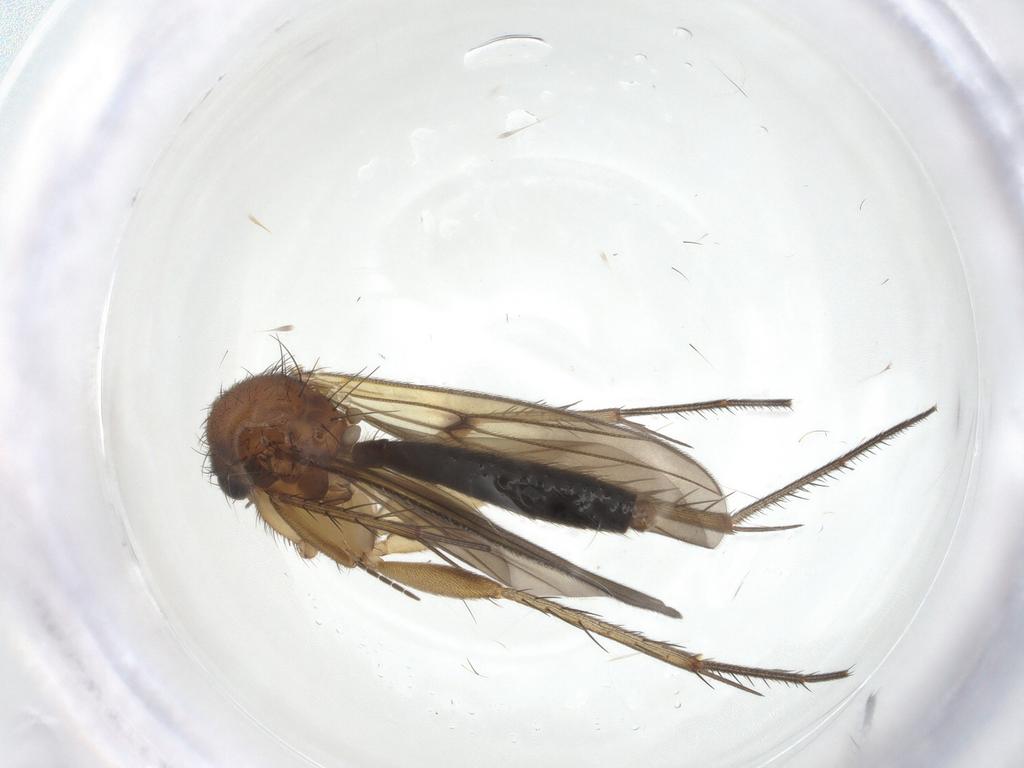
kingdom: Animalia
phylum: Arthropoda
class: Insecta
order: Diptera
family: Mycetophilidae
